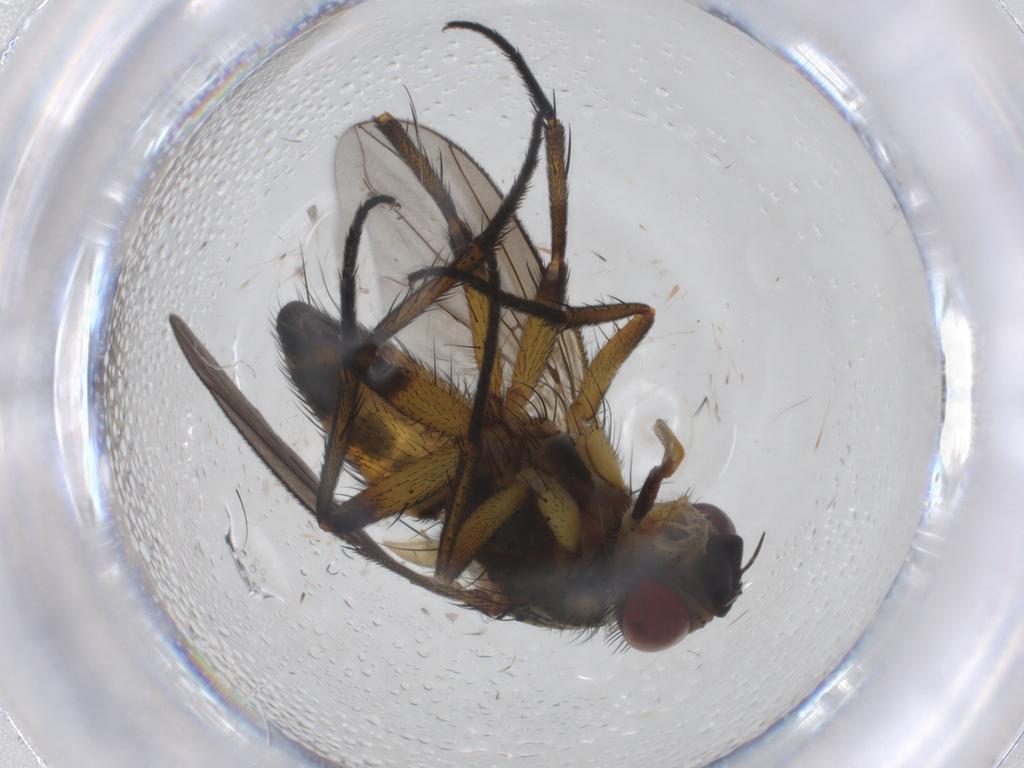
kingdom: Animalia
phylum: Arthropoda
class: Insecta
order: Diptera
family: Tachinidae
